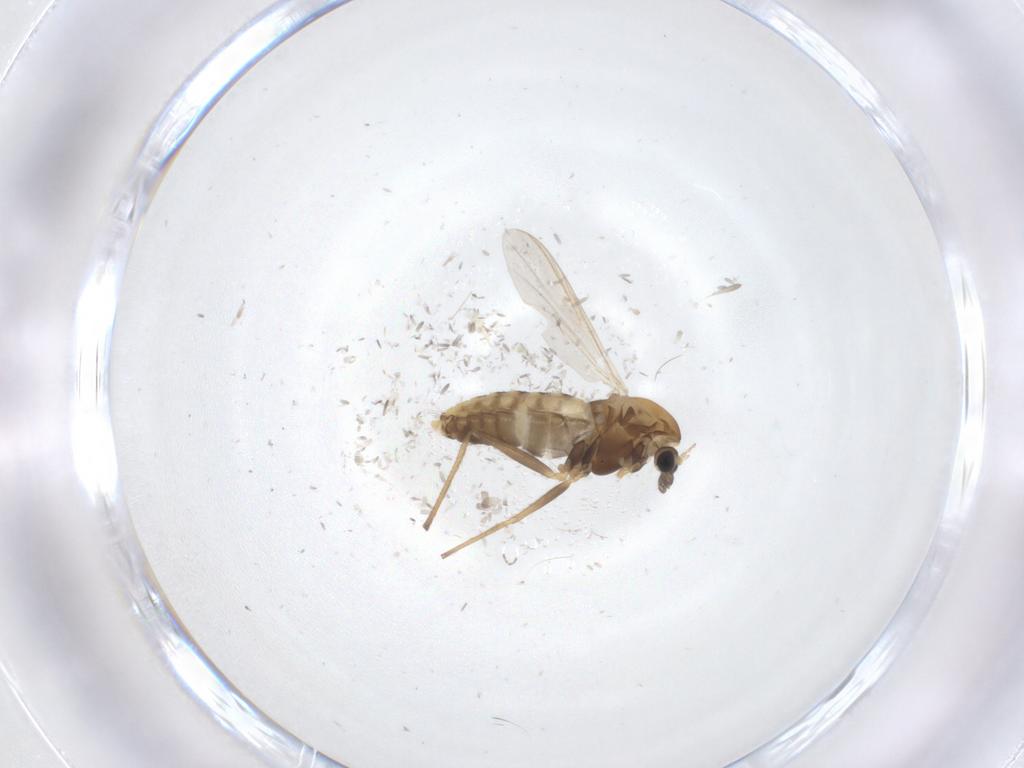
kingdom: Animalia
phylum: Arthropoda
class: Insecta
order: Diptera
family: Chironomidae
